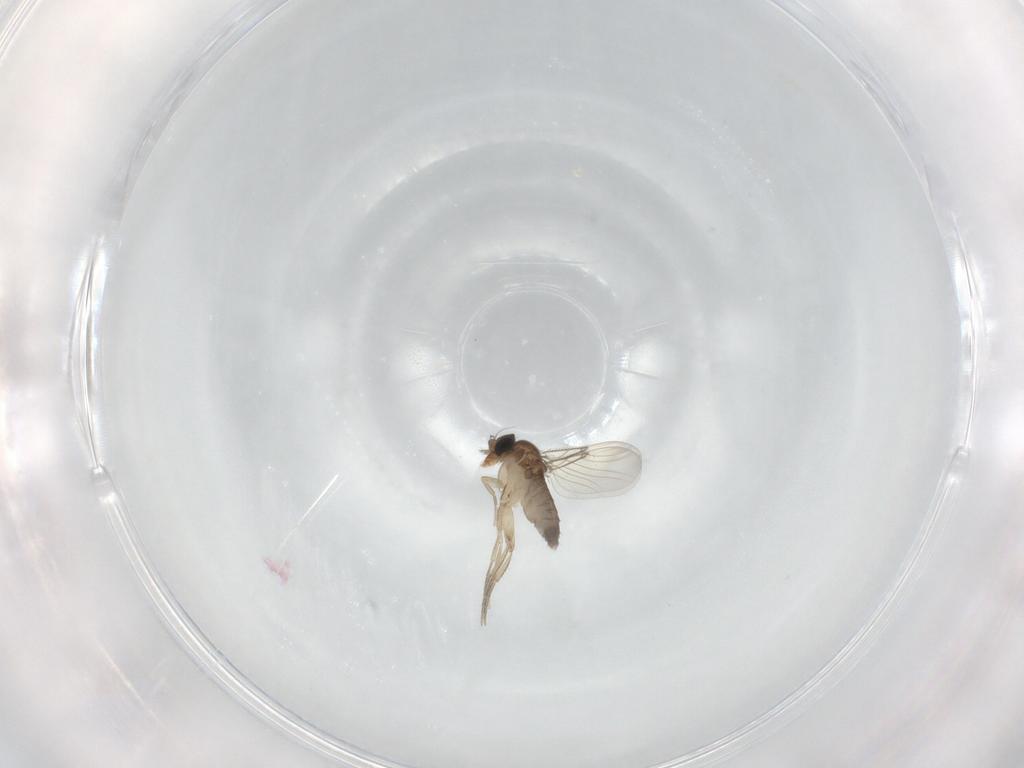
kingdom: Animalia
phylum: Arthropoda
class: Insecta
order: Diptera
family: Phoridae
